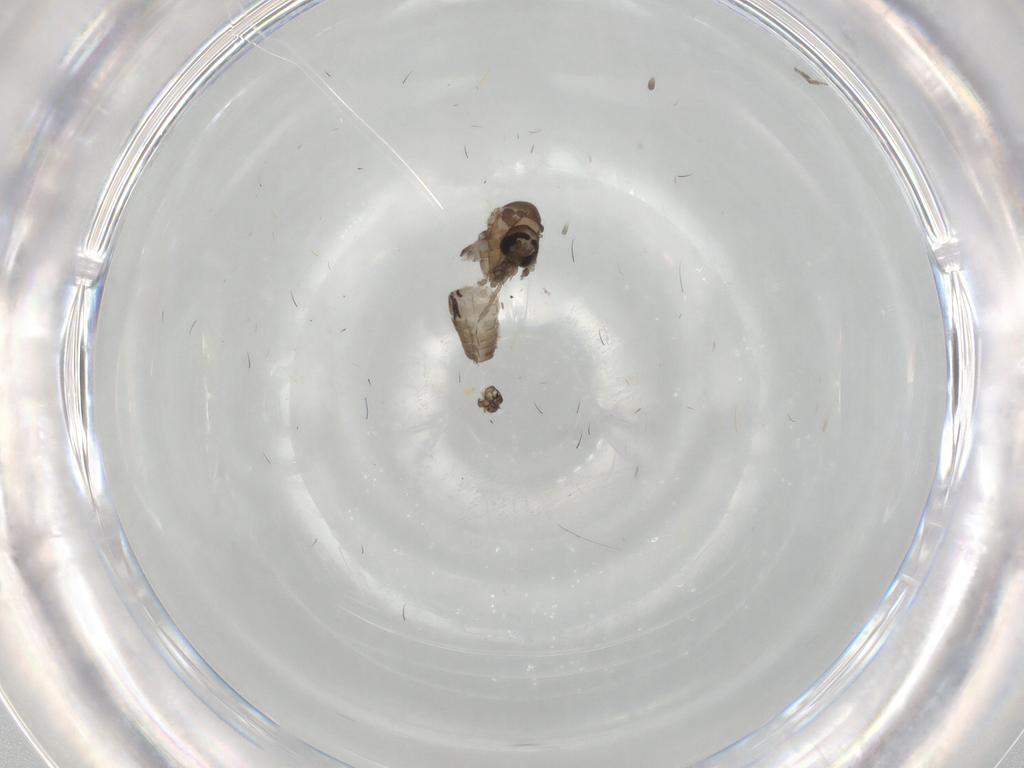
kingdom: Animalia
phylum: Arthropoda
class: Insecta
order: Diptera
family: Psychodidae
